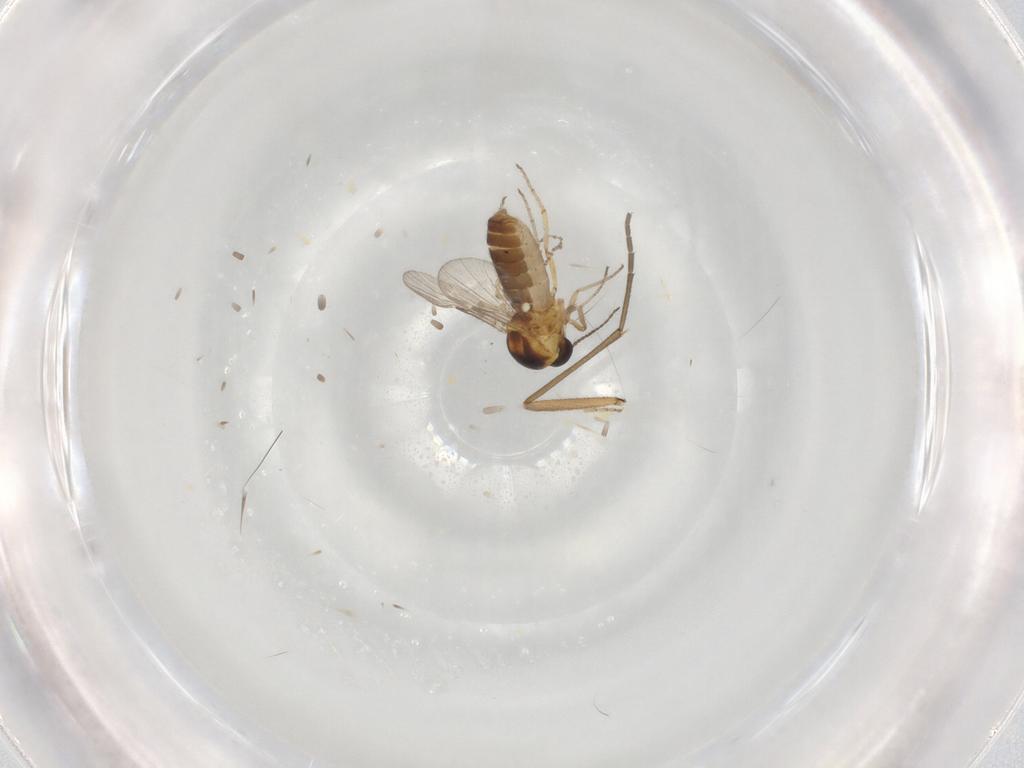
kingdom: Animalia
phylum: Arthropoda
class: Insecta
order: Diptera
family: Ceratopogonidae
